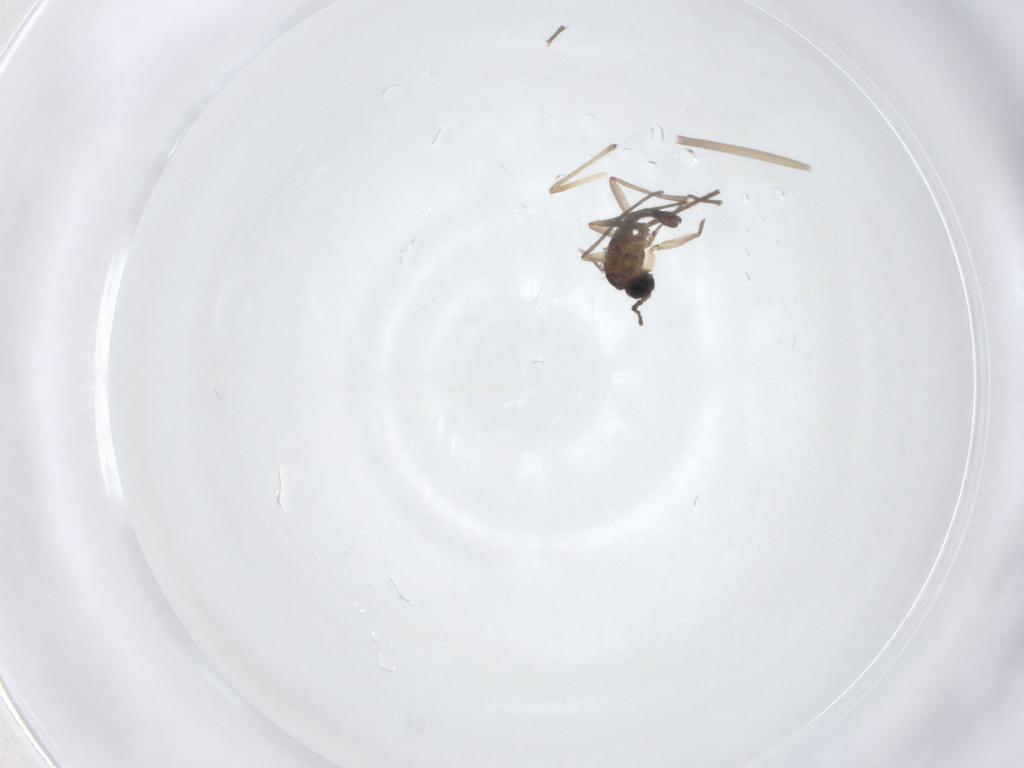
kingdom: Animalia
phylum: Arthropoda
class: Insecta
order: Diptera
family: Sciaridae
